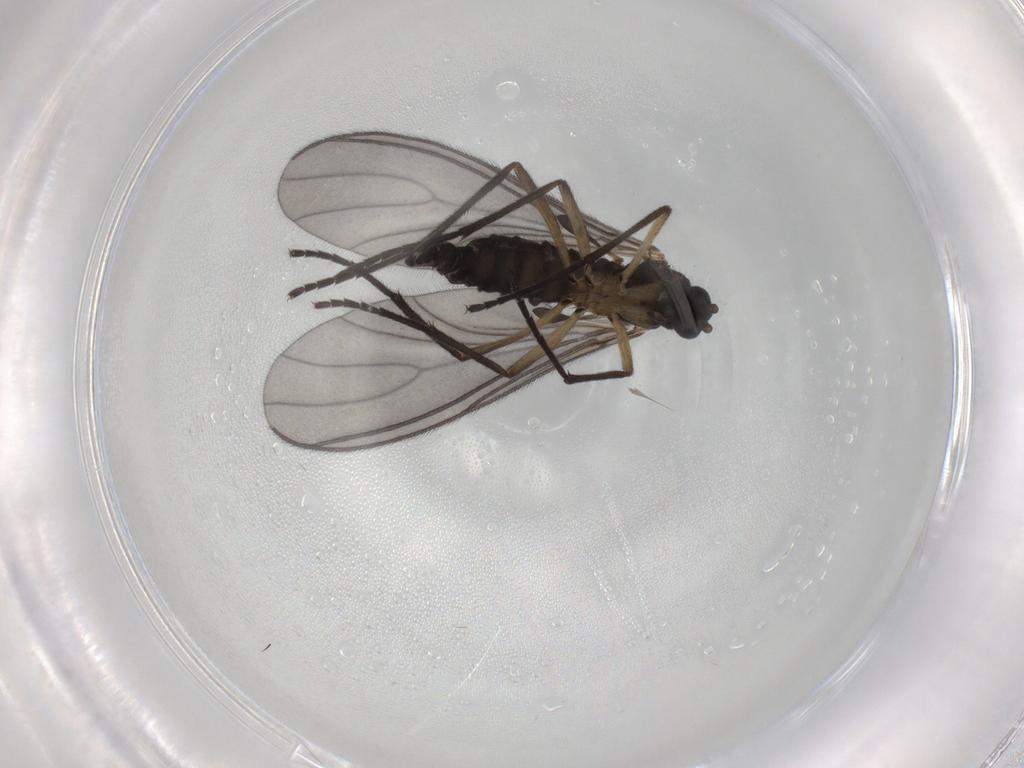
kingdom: Animalia
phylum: Arthropoda
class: Insecta
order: Diptera
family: Sciaridae
